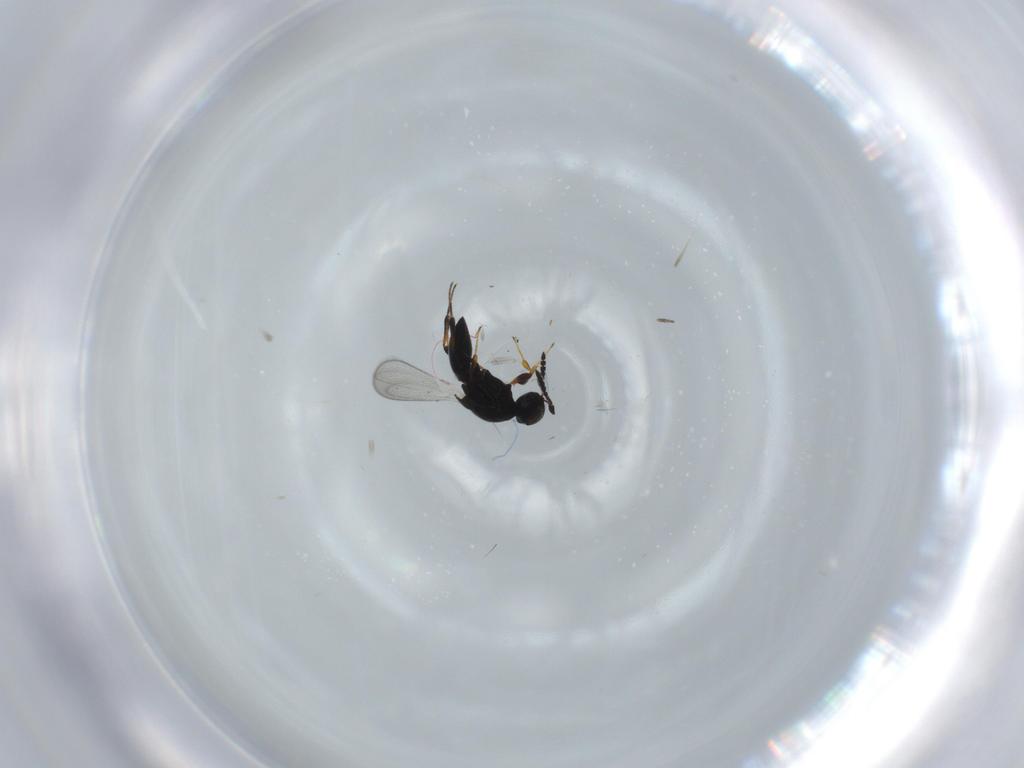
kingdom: Animalia
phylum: Arthropoda
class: Insecta
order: Hymenoptera
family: Platygastridae
